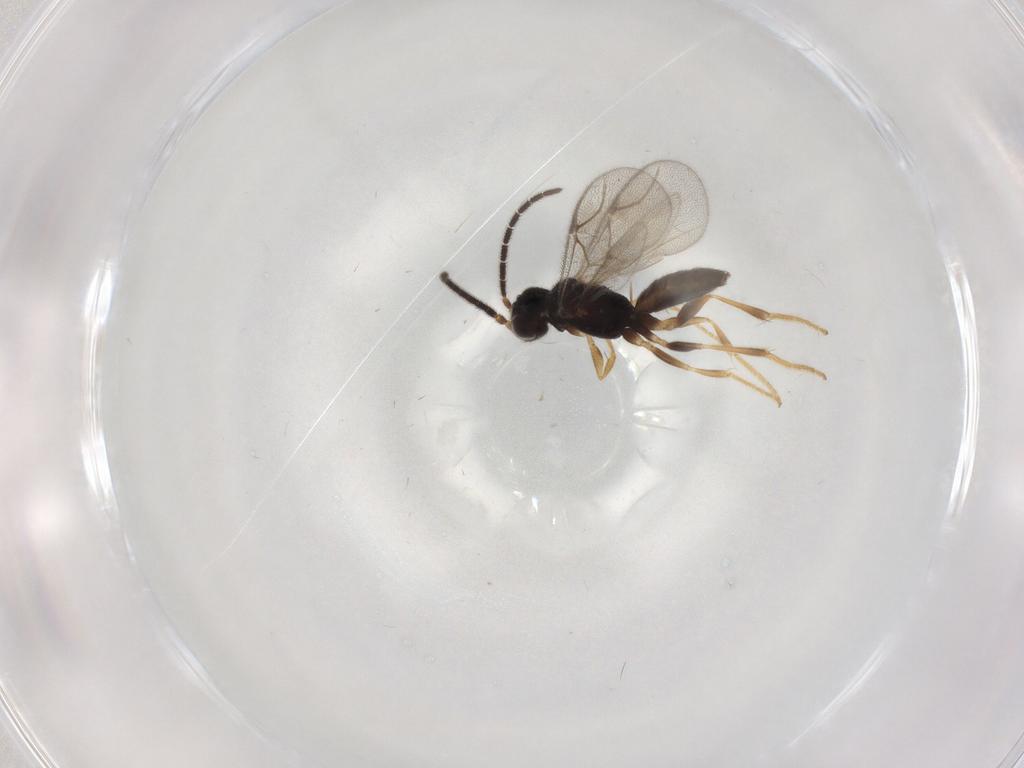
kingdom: Animalia
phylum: Arthropoda
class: Insecta
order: Hymenoptera
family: Dryinidae
